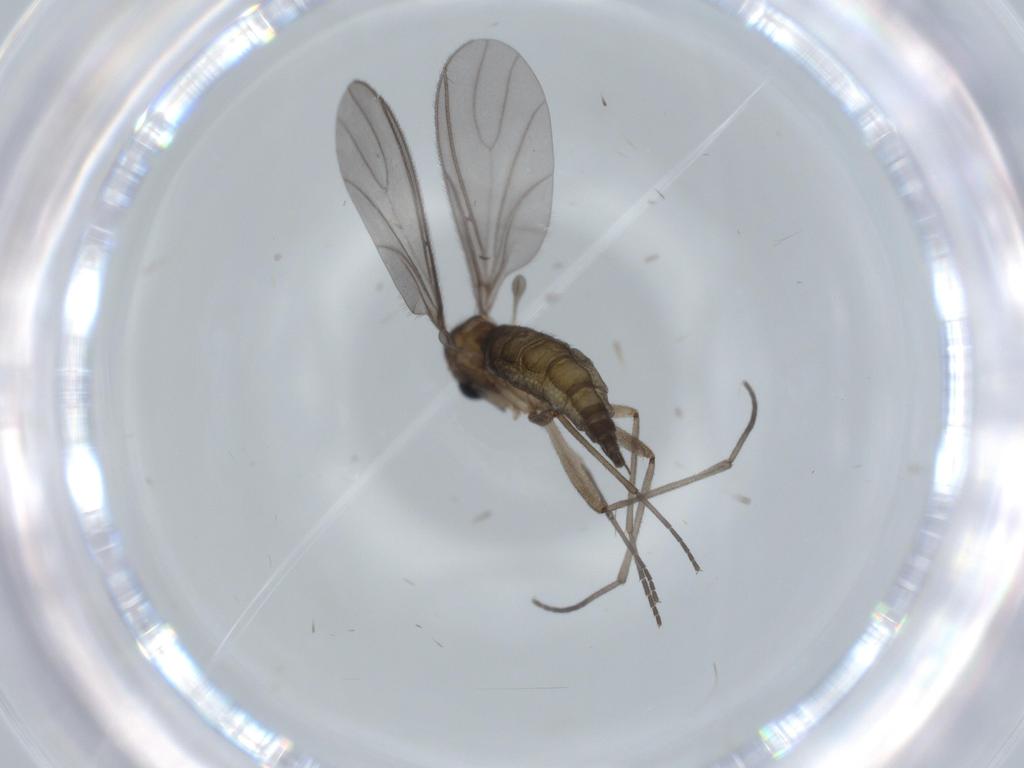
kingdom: Animalia
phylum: Arthropoda
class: Insecta
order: Diptera
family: Sciaridae
